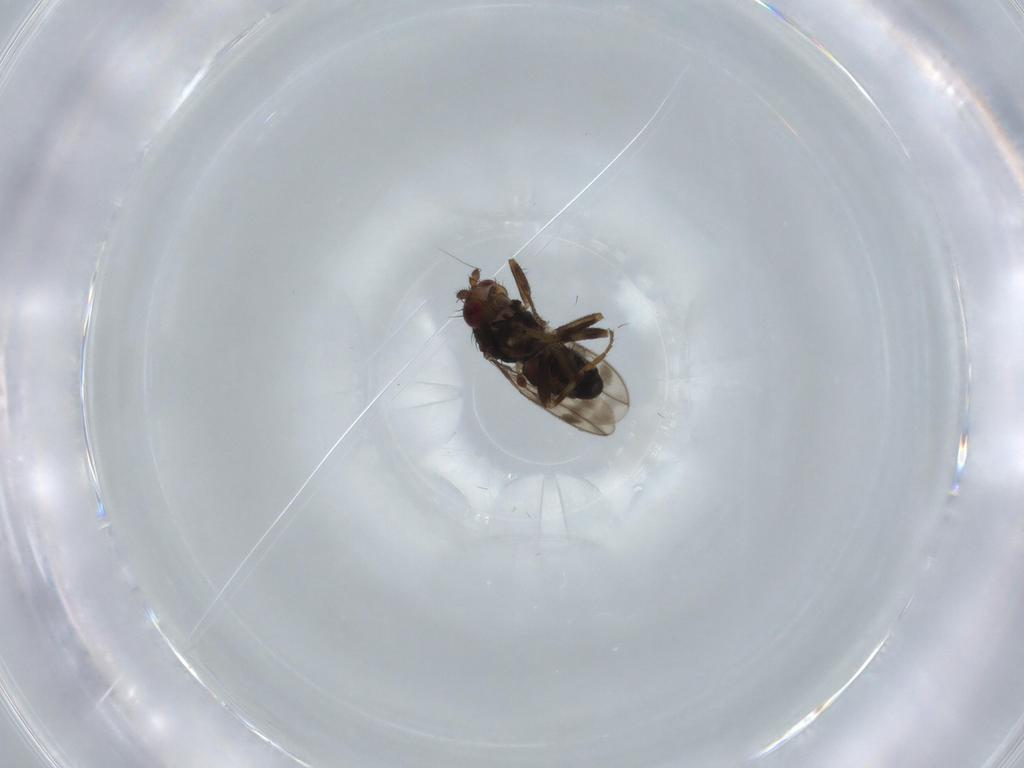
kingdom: Animalia
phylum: Arthropoda
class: Insecta
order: Diptera
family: Sphaeroceridae
